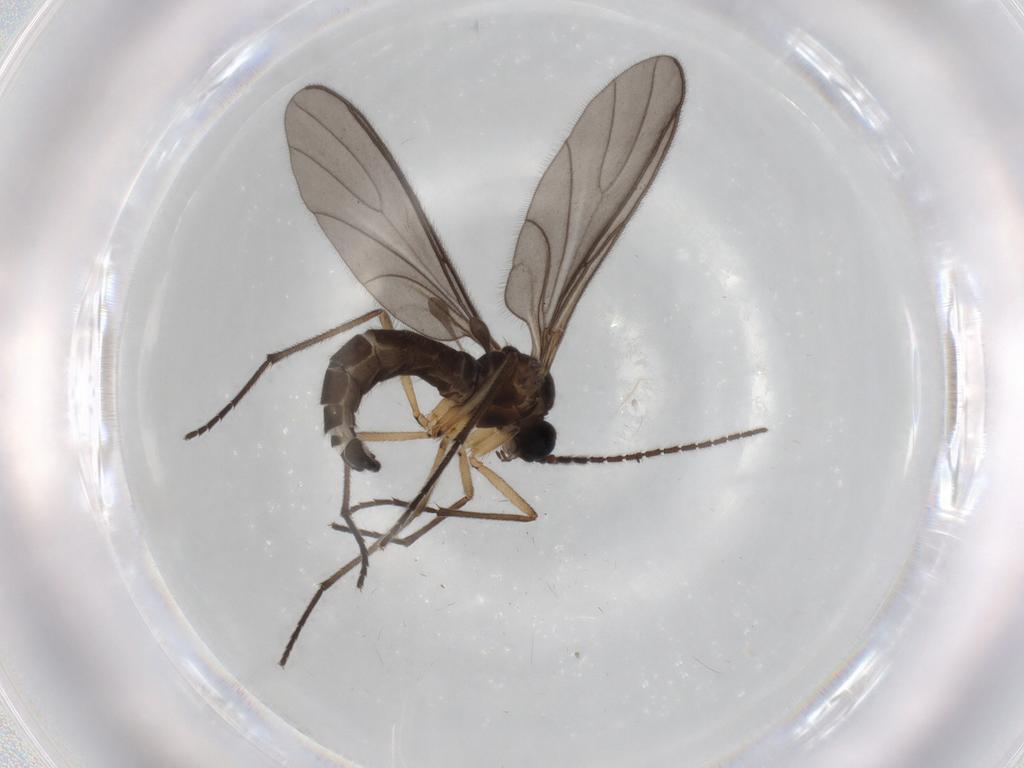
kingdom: Animalia
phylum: Arthropoda
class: Insecta
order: Diptera
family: Sciaridae
